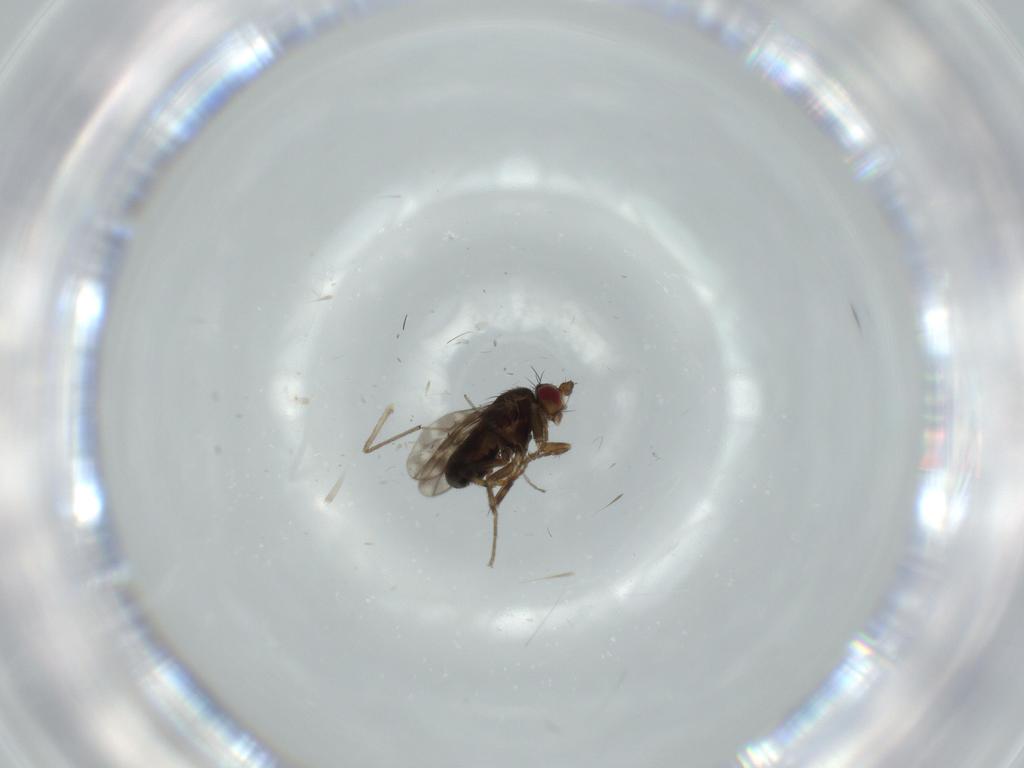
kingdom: Animalia
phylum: Arthropoda
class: Insecta
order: Diptera
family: Sphaeroceridae
